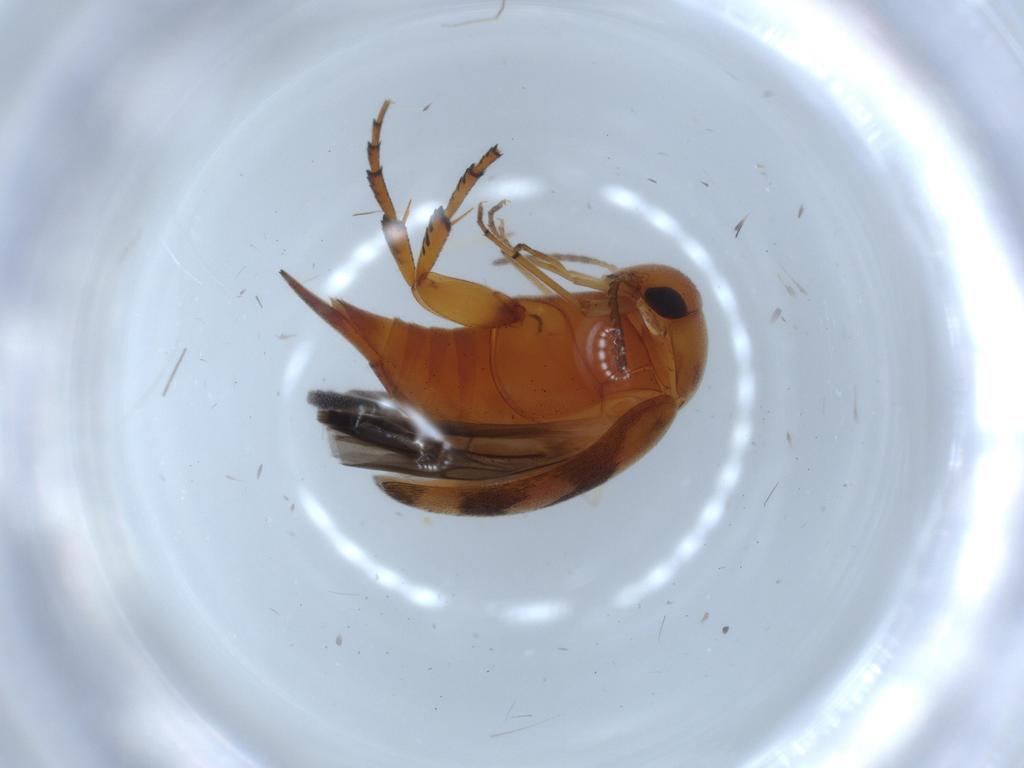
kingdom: Animalia
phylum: Arthropoda
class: Insecta
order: Coleoptera
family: Mordellidae
